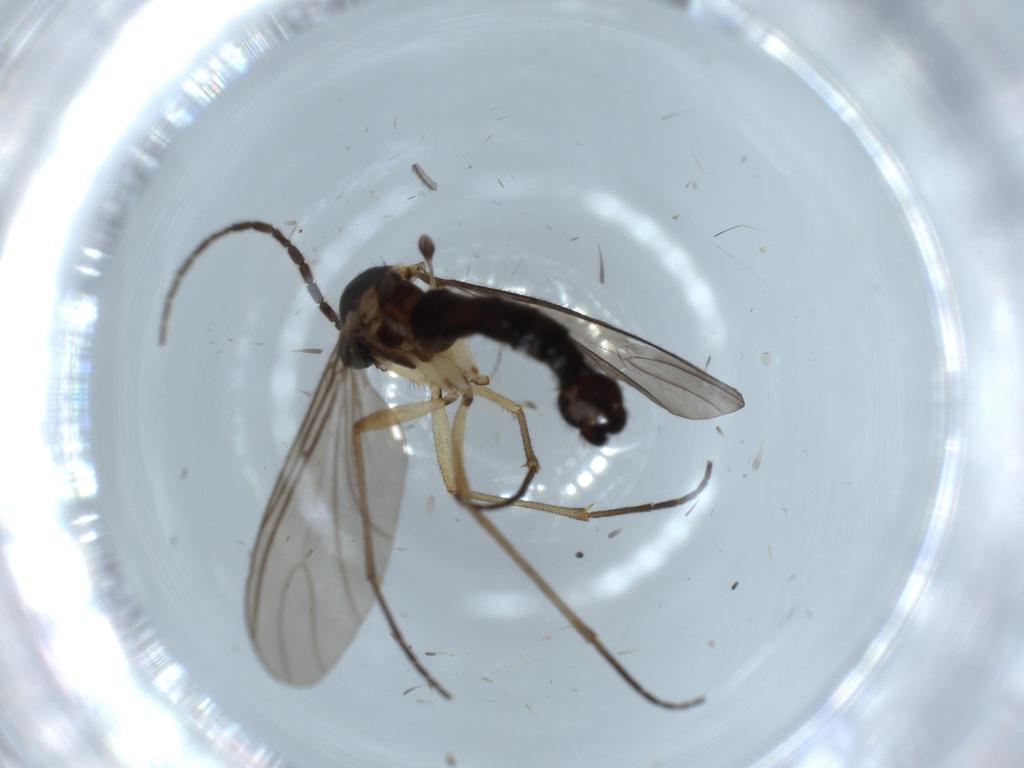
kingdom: Animalia
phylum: Arthropoda
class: Insecta
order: Diptera
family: Sciaridae
